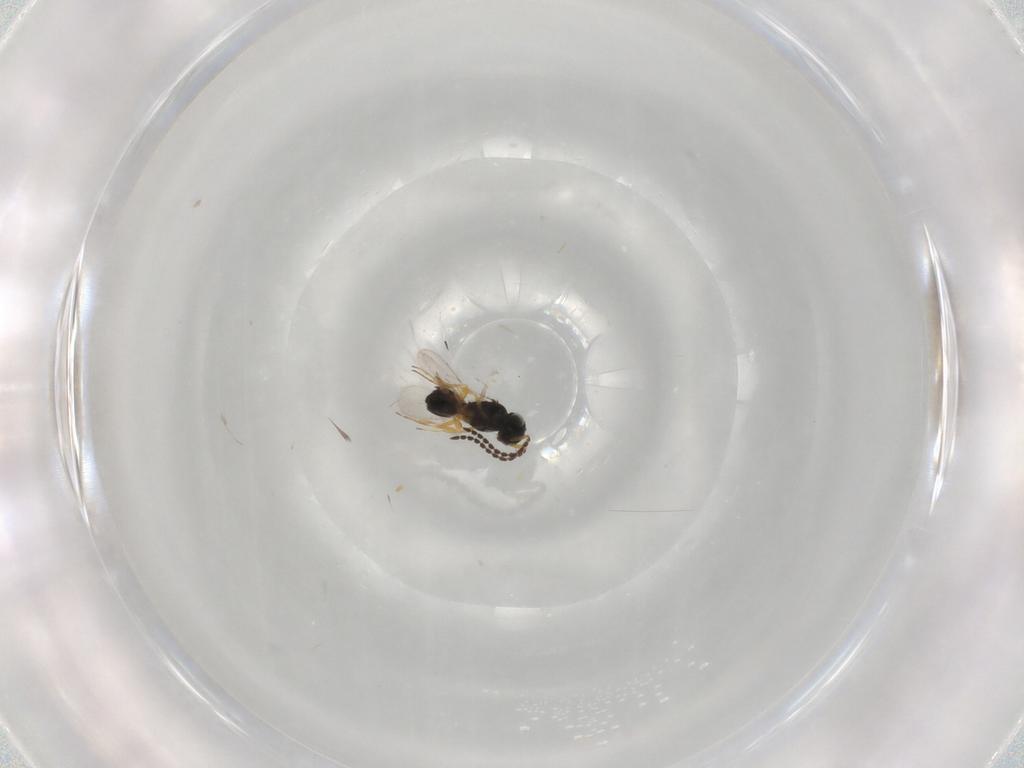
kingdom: Animalia
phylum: Arthropoda
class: Insecta
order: Hymenoptera
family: Scelionidae
